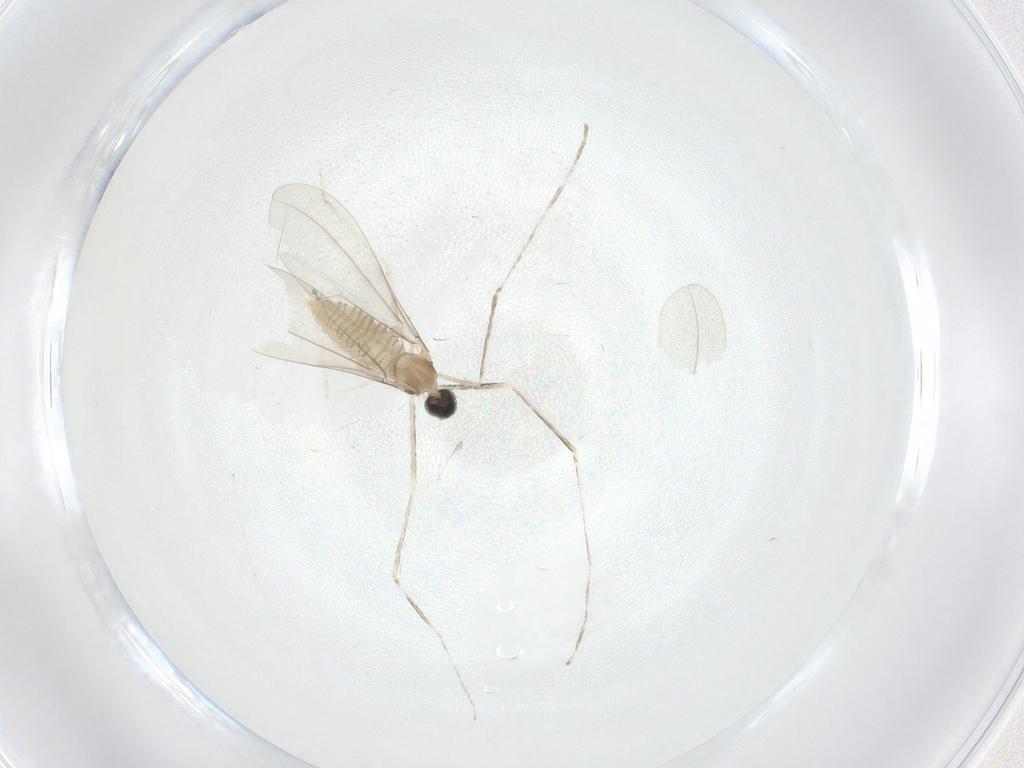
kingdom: Animalia
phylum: Arthropoda
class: Insecta
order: Diptera
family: Cecidomyiidae
